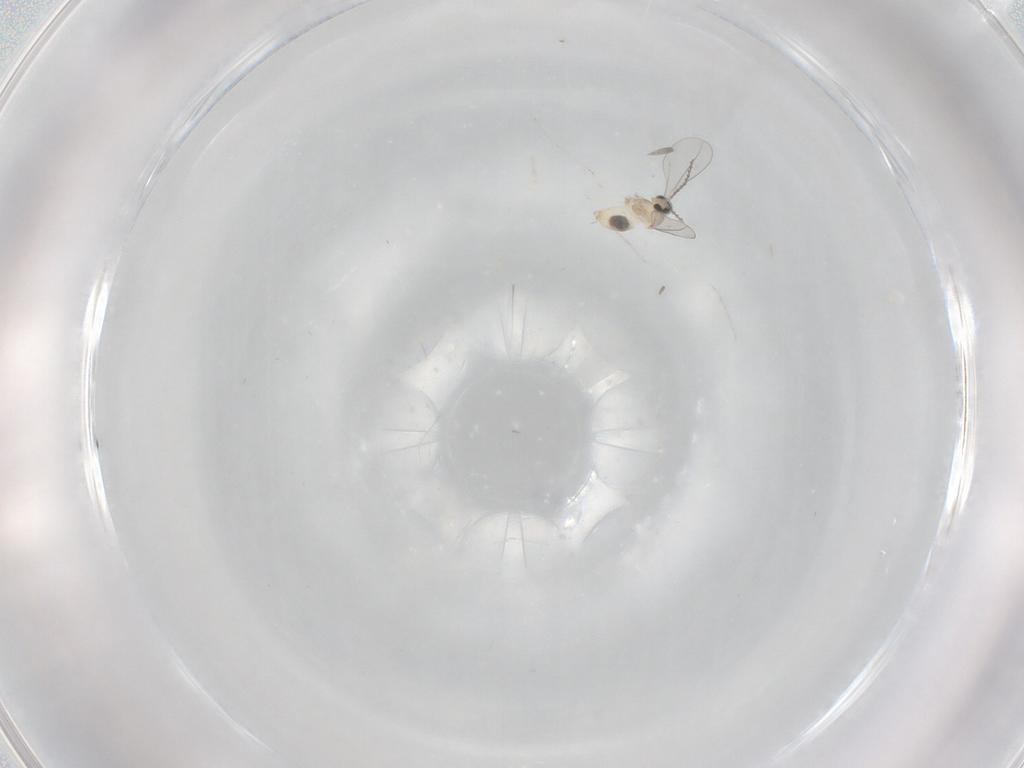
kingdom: Animalia
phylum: Arthropoda
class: Insecta
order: Diptera
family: Cecidomyiidae
